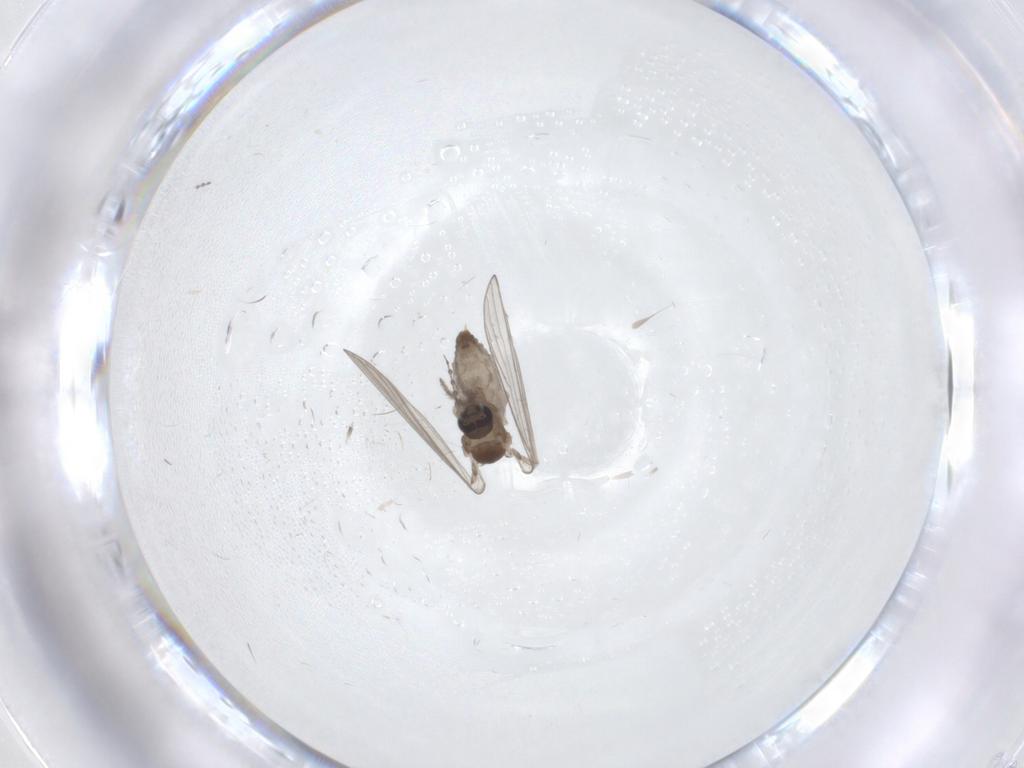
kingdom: Animalia
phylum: Arthropoda
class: Insecta
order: Diptera
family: Psychodidae
